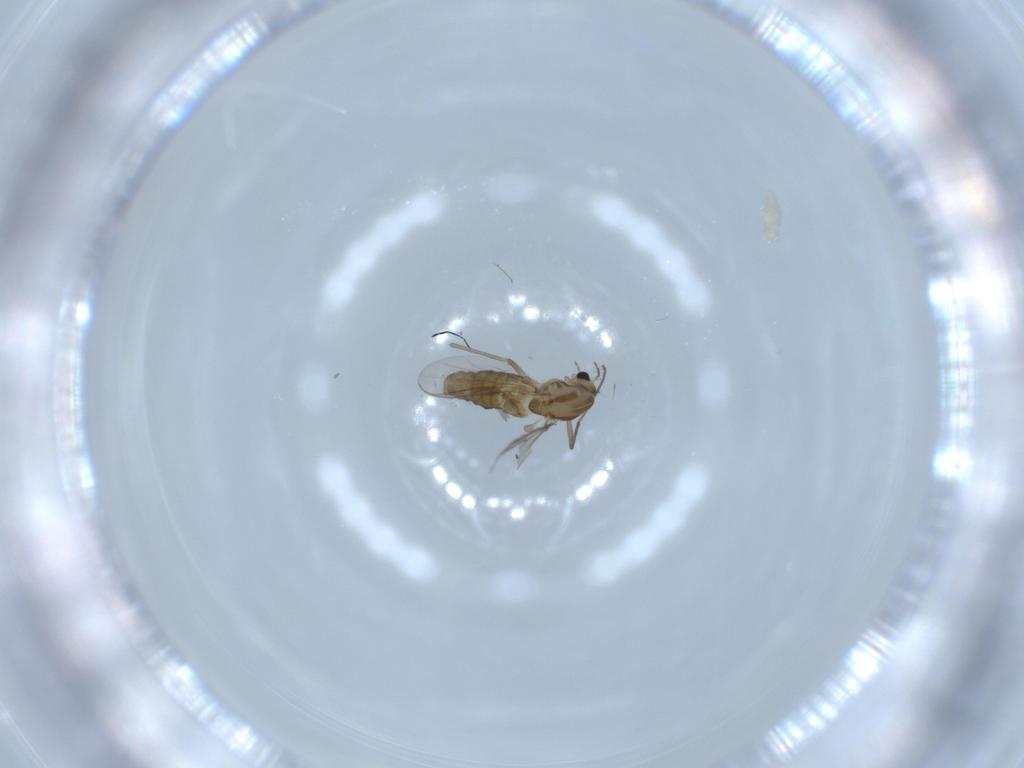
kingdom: Animalia
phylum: Arthropoda
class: Insecta
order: Diptera
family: Chironomidae
